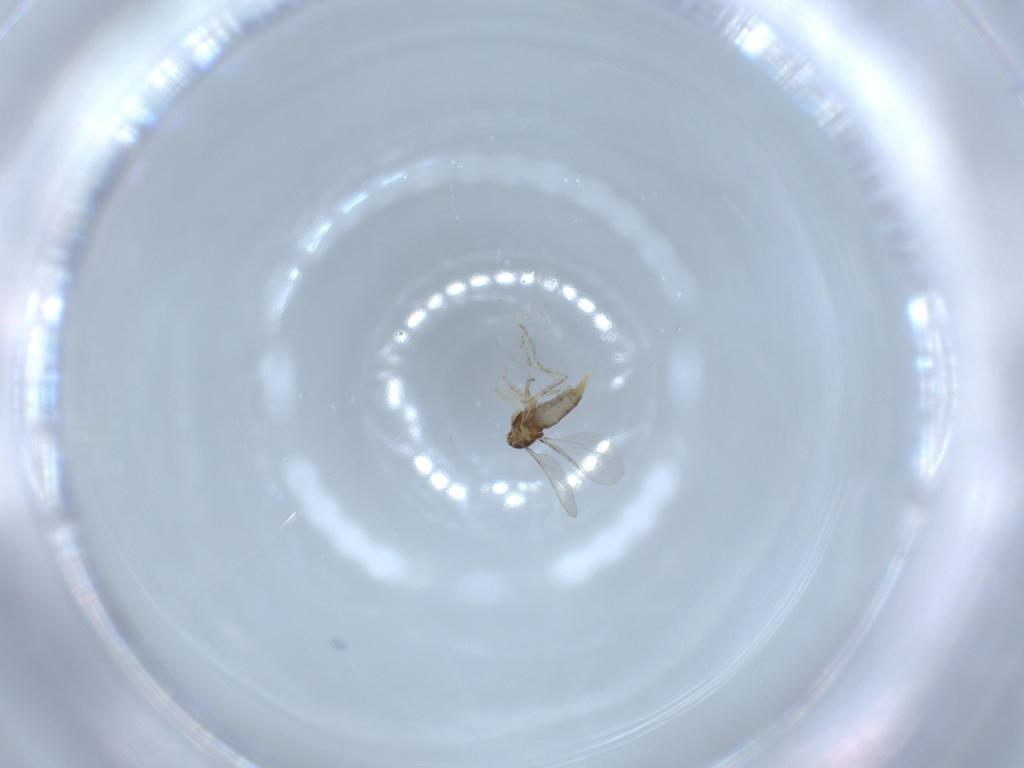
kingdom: Animalia
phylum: Arthropoda
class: Insecta
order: Diptera
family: Cecidomyiidae
